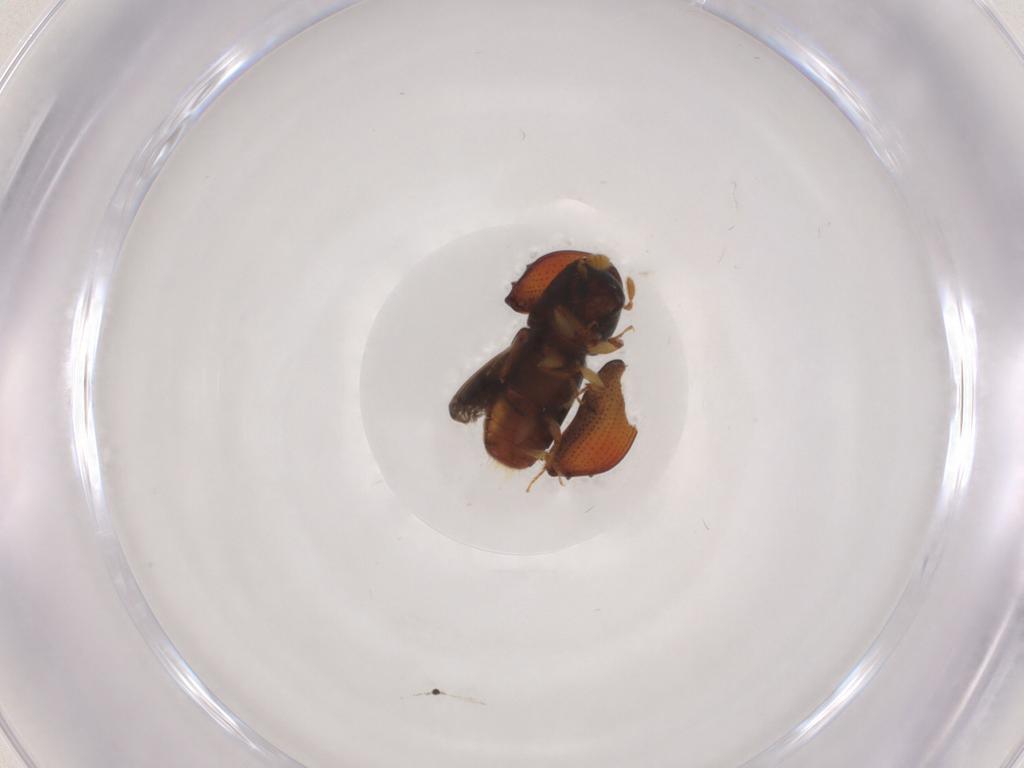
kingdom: Animalia
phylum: Arthropoda
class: Insecta
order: Coleoptera
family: Curculionidae
